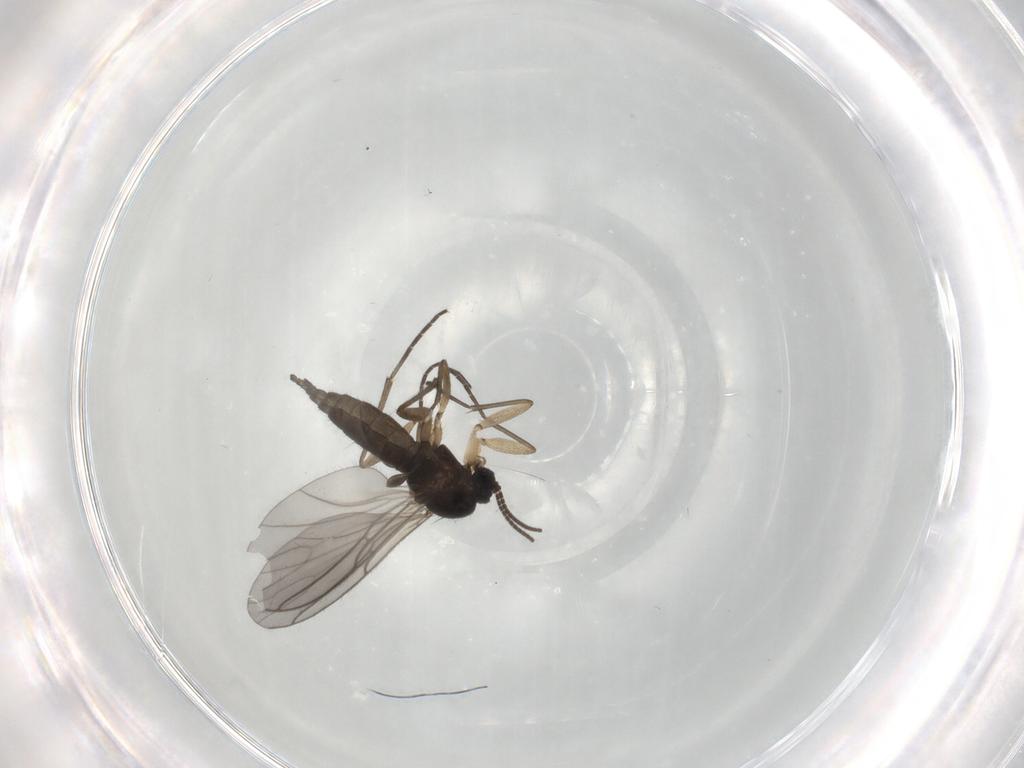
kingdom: Animalia
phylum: Arthropoda
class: Insecta
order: Diptera
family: Sciaridae
